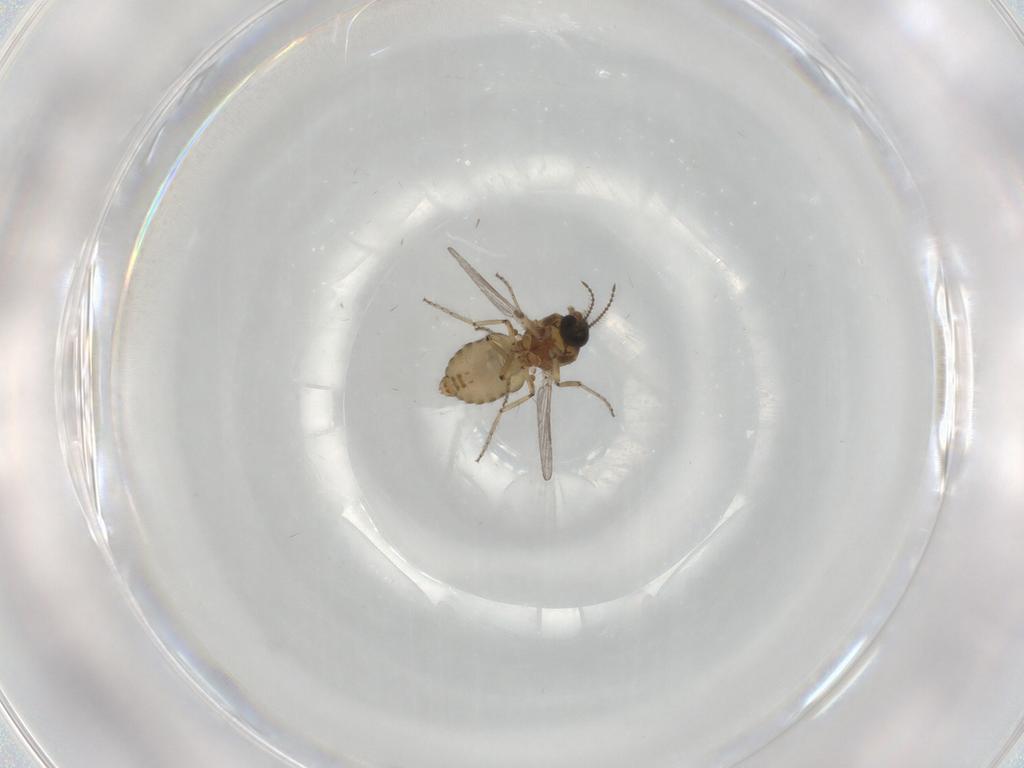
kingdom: Animalia
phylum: Arthropoda
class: Insecta
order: Diptera
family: Ceratopogonidae
